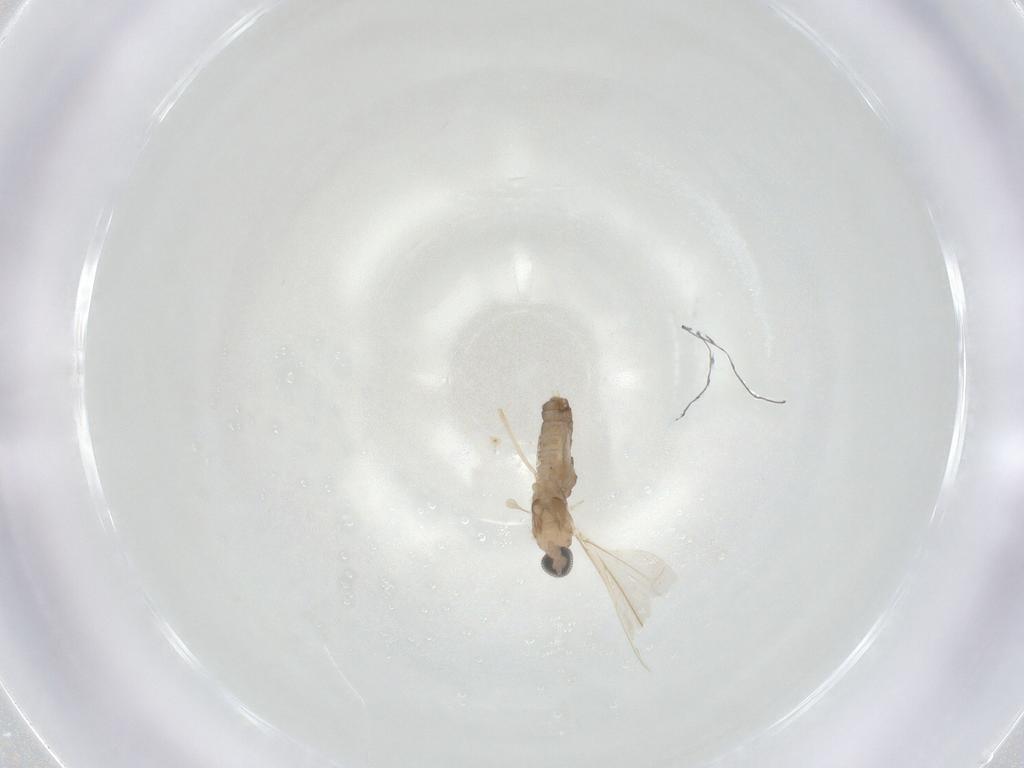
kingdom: Animalia
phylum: Arthropoda
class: Insecta
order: Diptera
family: Cecidomyiidae
